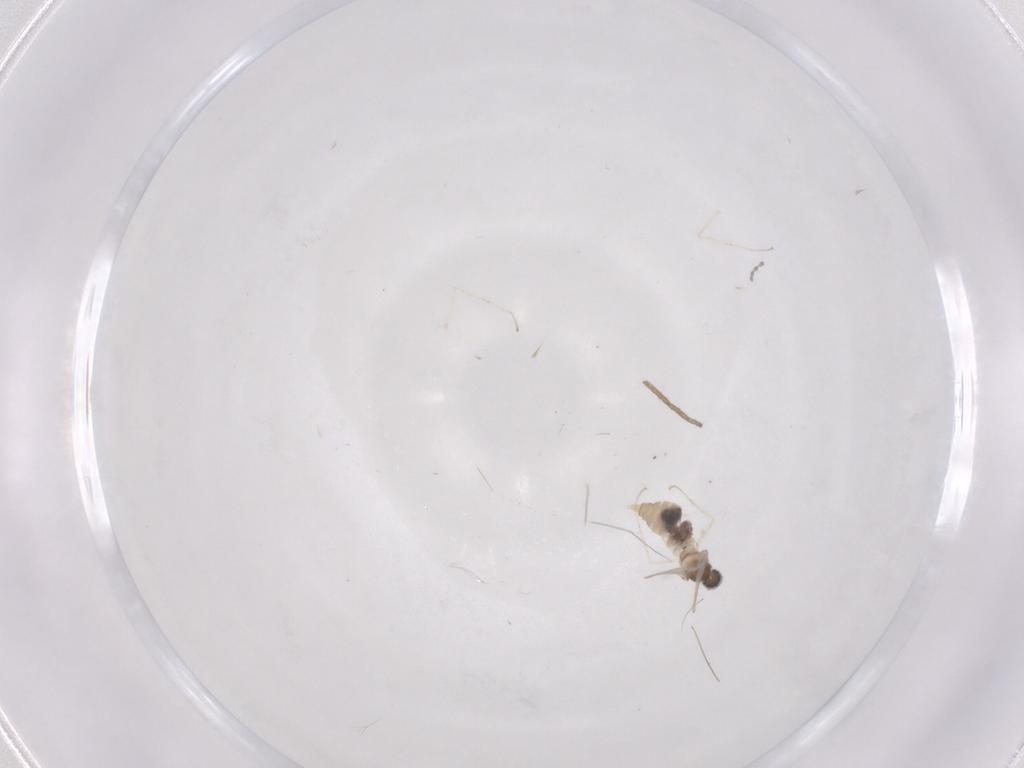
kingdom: Animalia
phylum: Arthropoda
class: Insecta
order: Diptera
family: Cecidomyiidae
